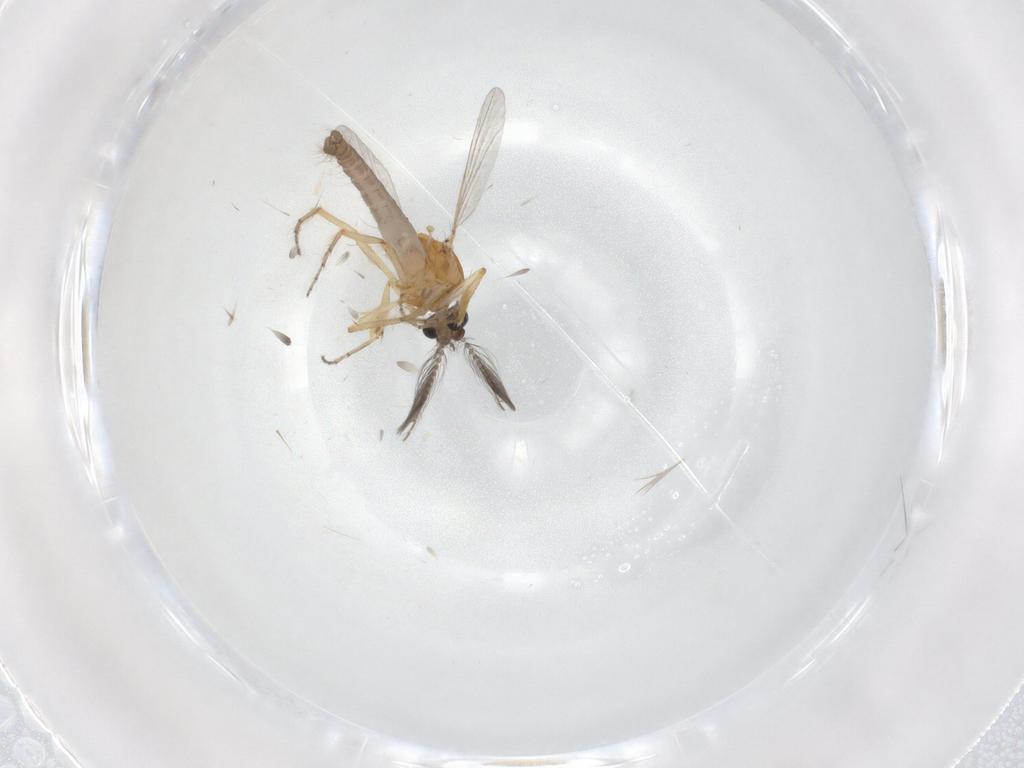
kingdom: Animalia
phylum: Arthropoda
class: Insecta
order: Diptera
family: Ceratopogonidae
